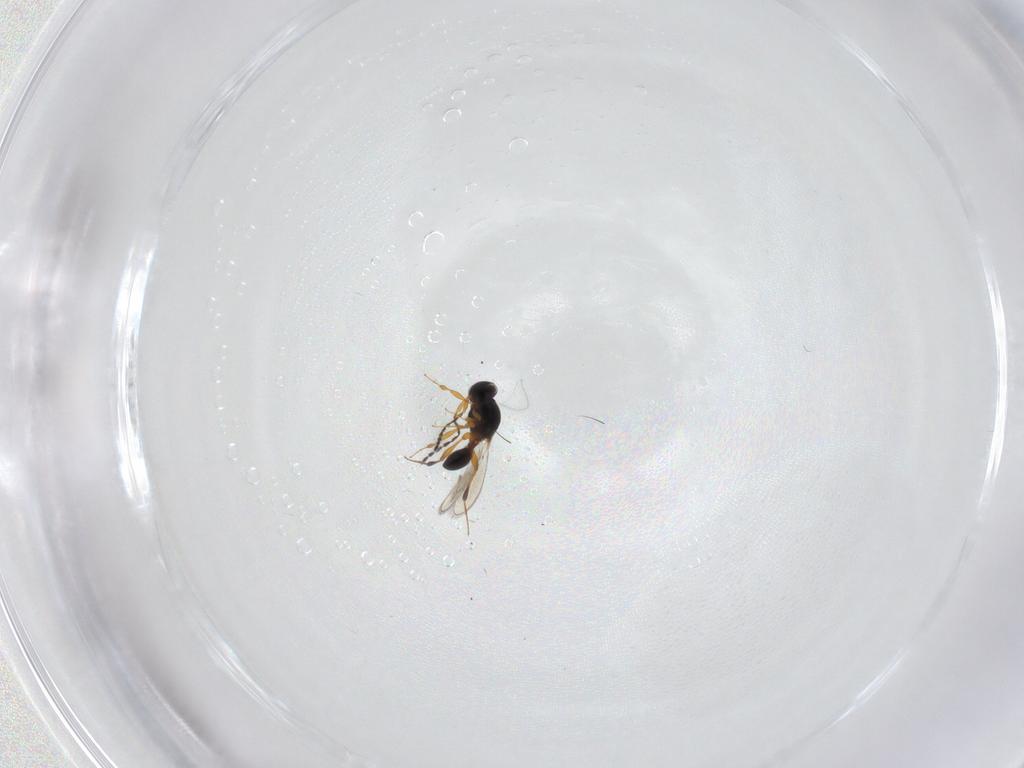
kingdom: Animalia
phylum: Arthropoda
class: Insecta
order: Hymenoptera
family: Platygastridae
